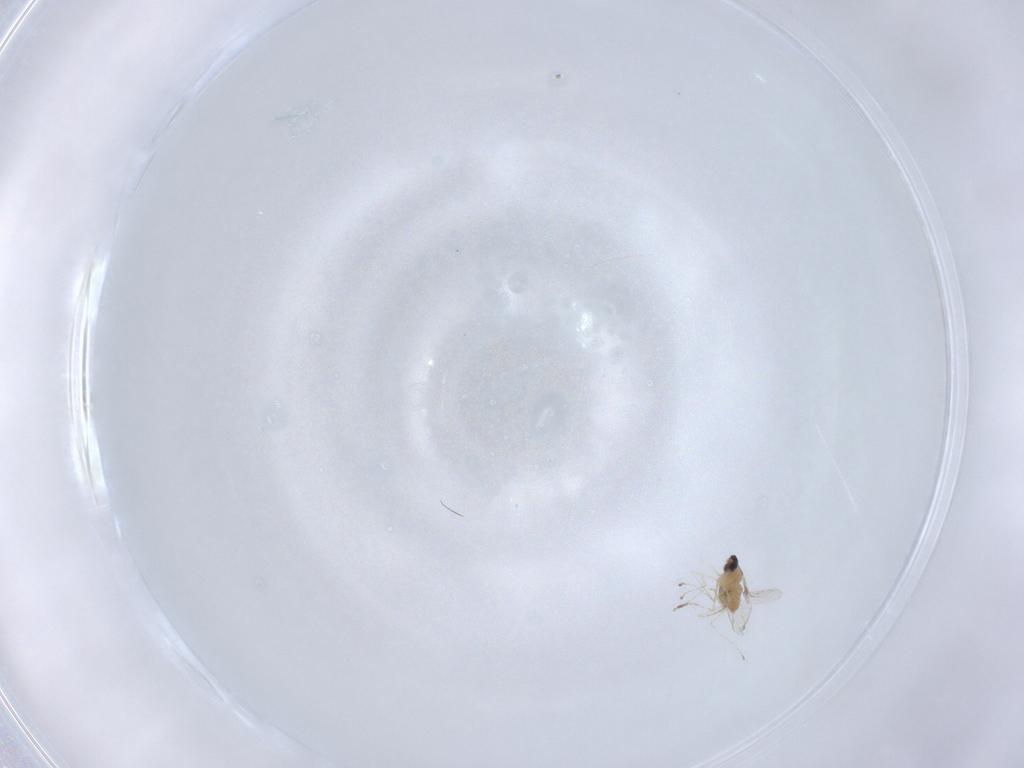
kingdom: Animalia
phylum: Arthropoda
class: Insecta
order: Diptera
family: Cecidomyiidae
